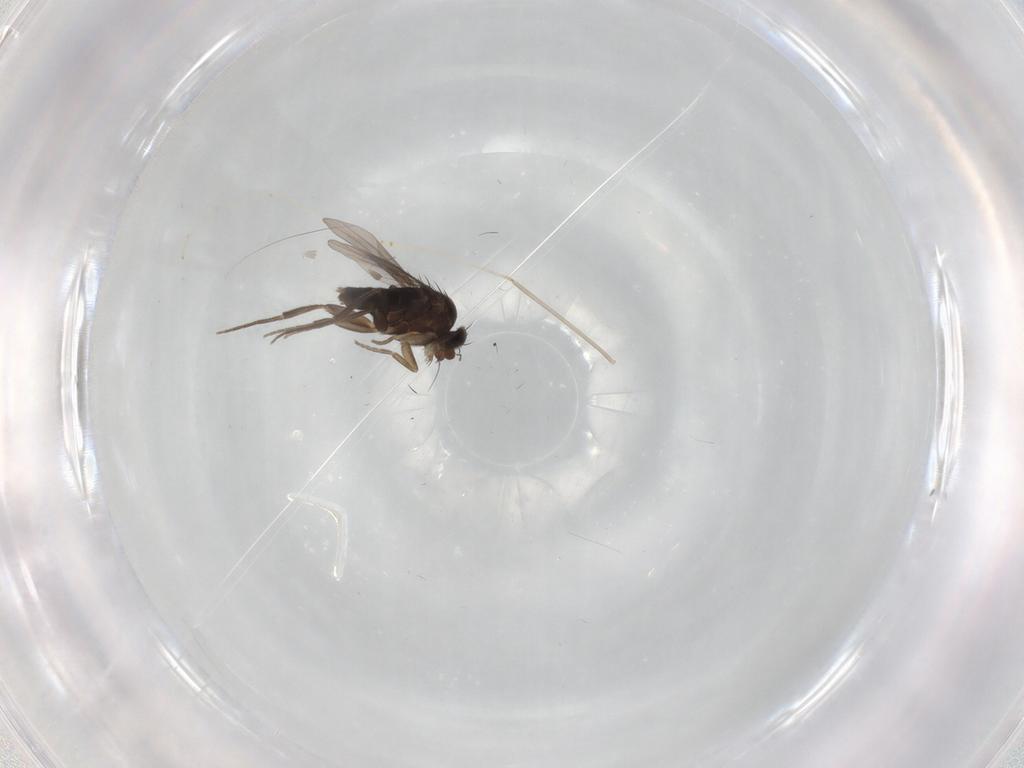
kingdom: Animalia
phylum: Arthropoda
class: Insecta
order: Diptera
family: Phoridae
